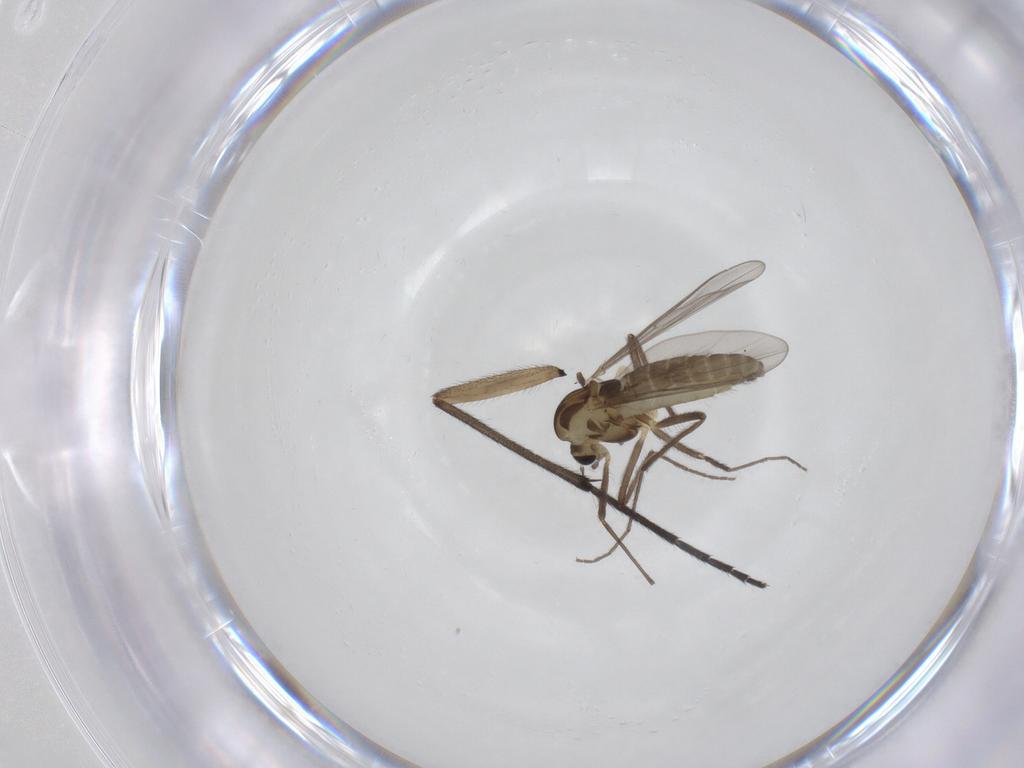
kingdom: Animalia
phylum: Arthropoda
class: Insecta
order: Diptera
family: Chironomidae
